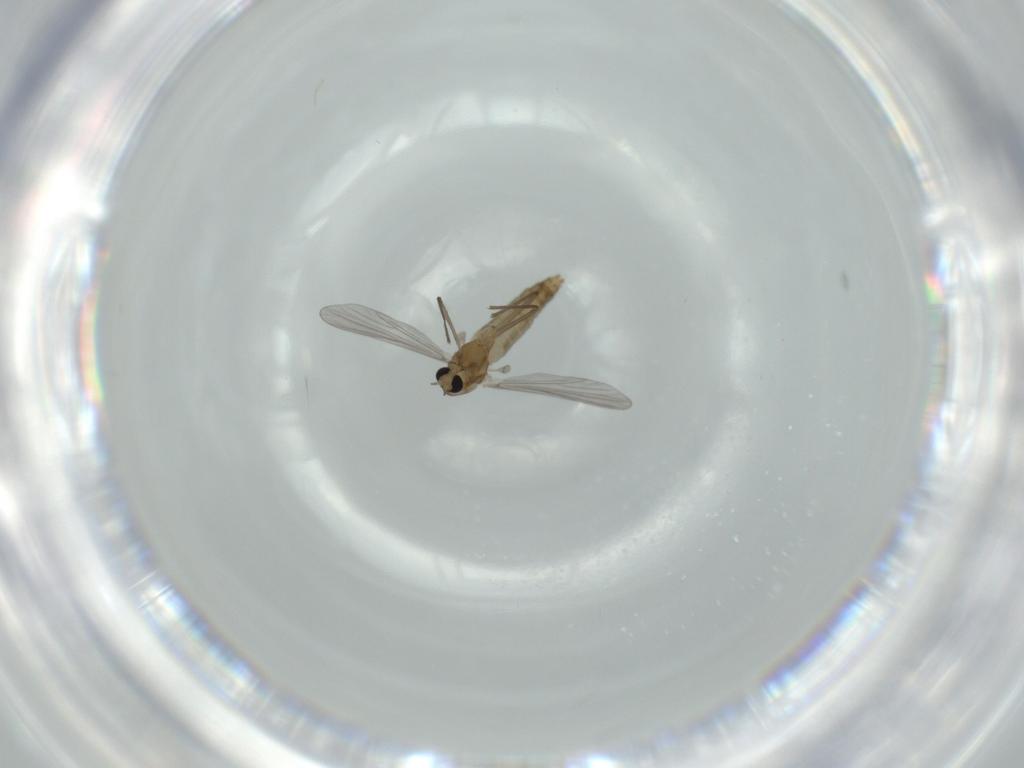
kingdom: Animalia
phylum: Arthropoda
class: Insecta
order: Diptera
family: Chironomidae
